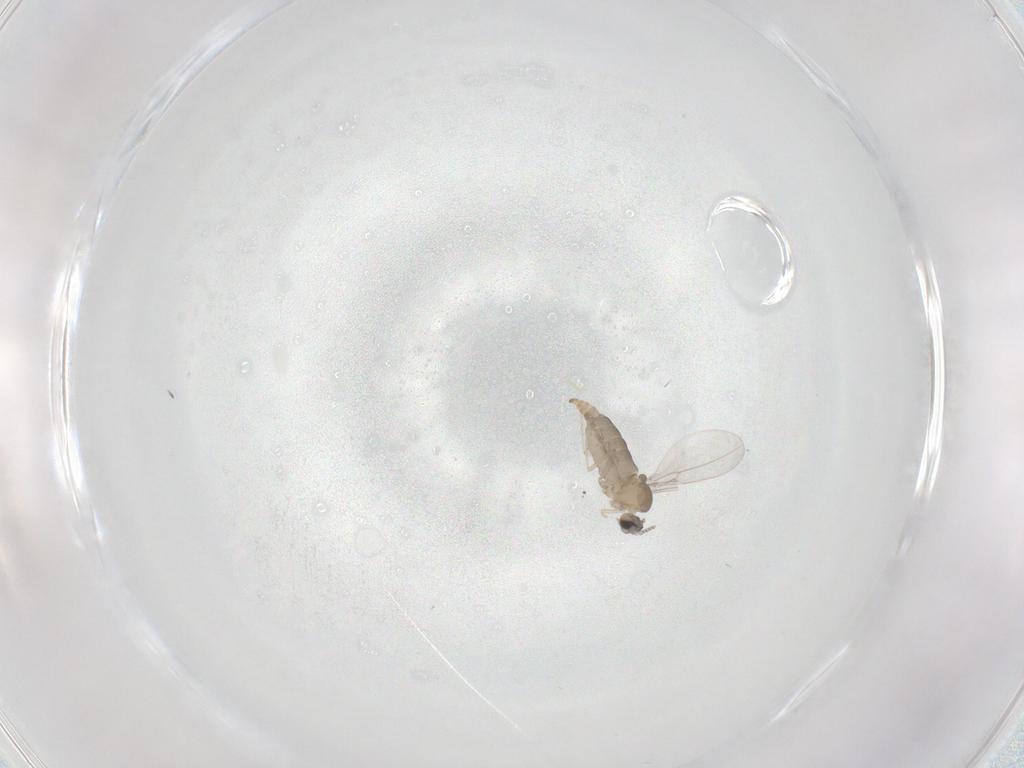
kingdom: Animalia
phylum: Arthropoda
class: Insecta
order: Diptera
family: Cecidomyiidae
